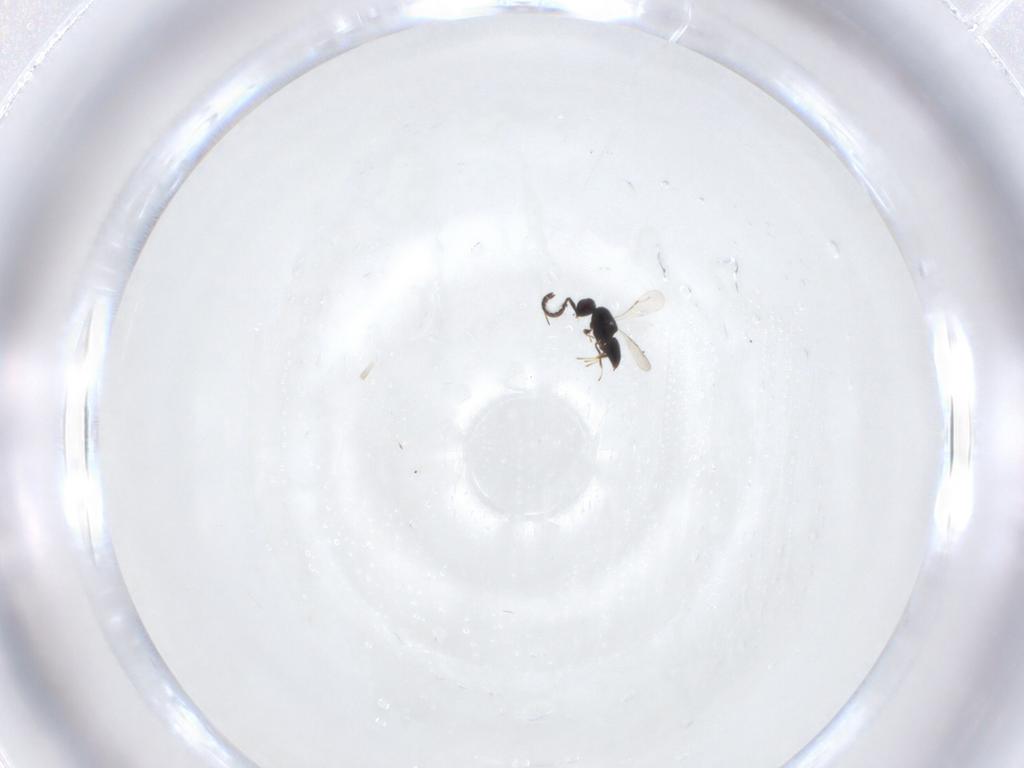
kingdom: Animalia
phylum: Arthropoda
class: Insecta
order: Hymenoptera
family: Ceraphronidae
